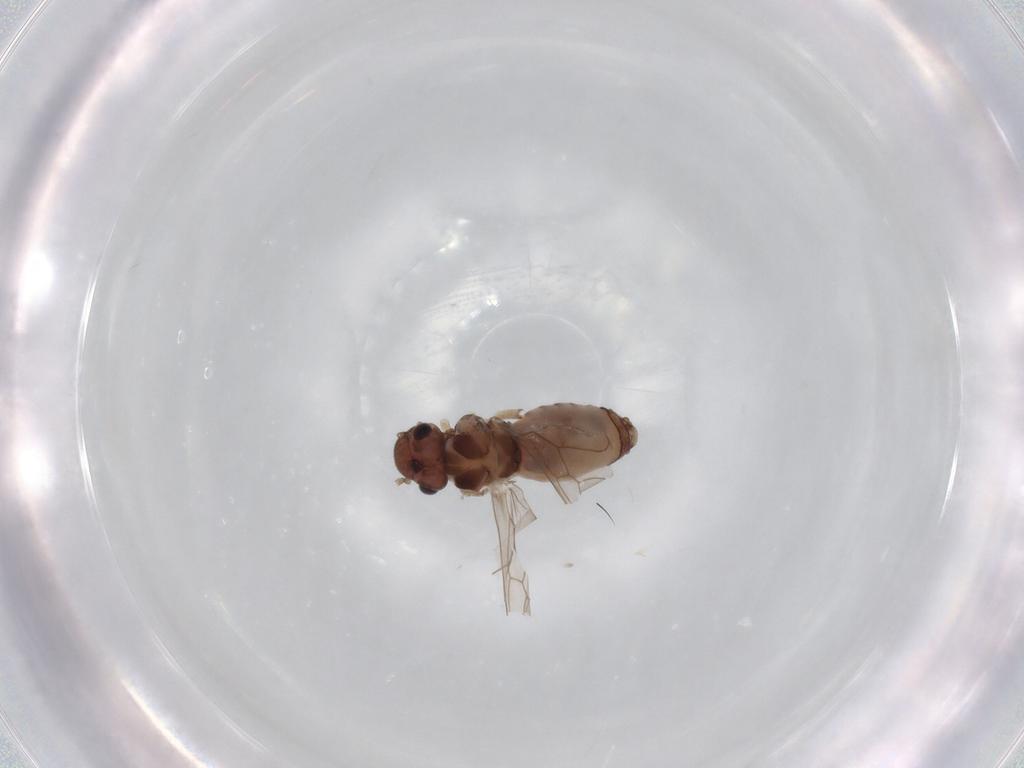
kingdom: Animalia
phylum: Arthropoda
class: Insecta
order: Psocodea
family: Peripsocidae
